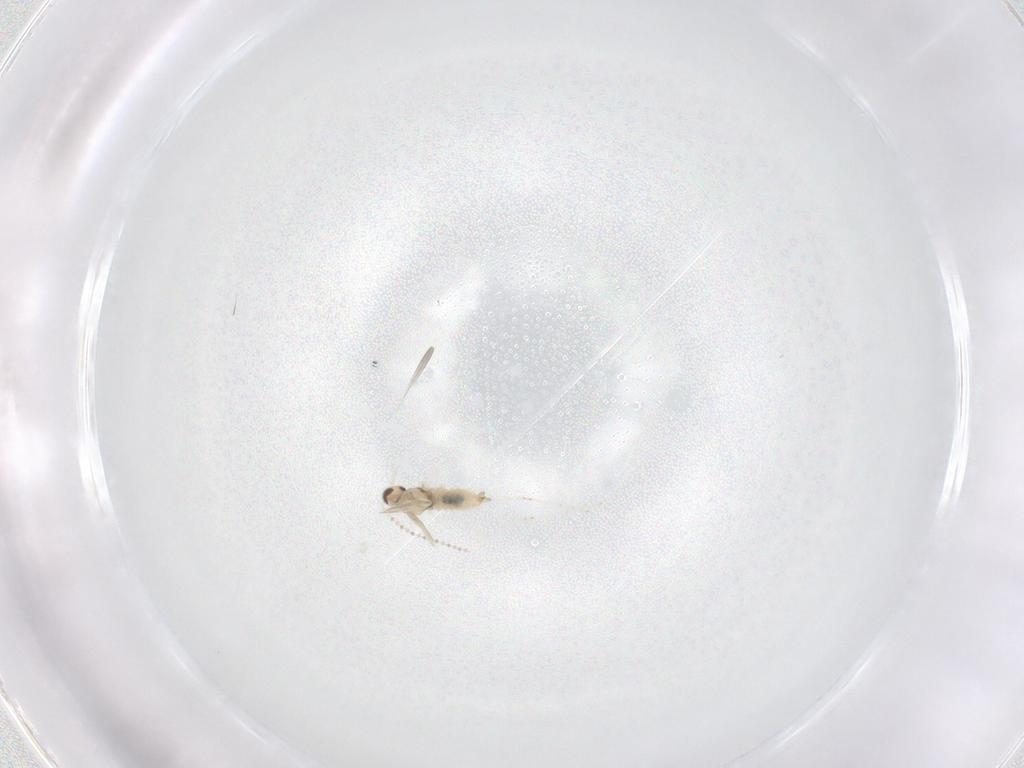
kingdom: Animalia
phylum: Arthropoda
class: Insecta
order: Diptera
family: Cecidomyiidae
